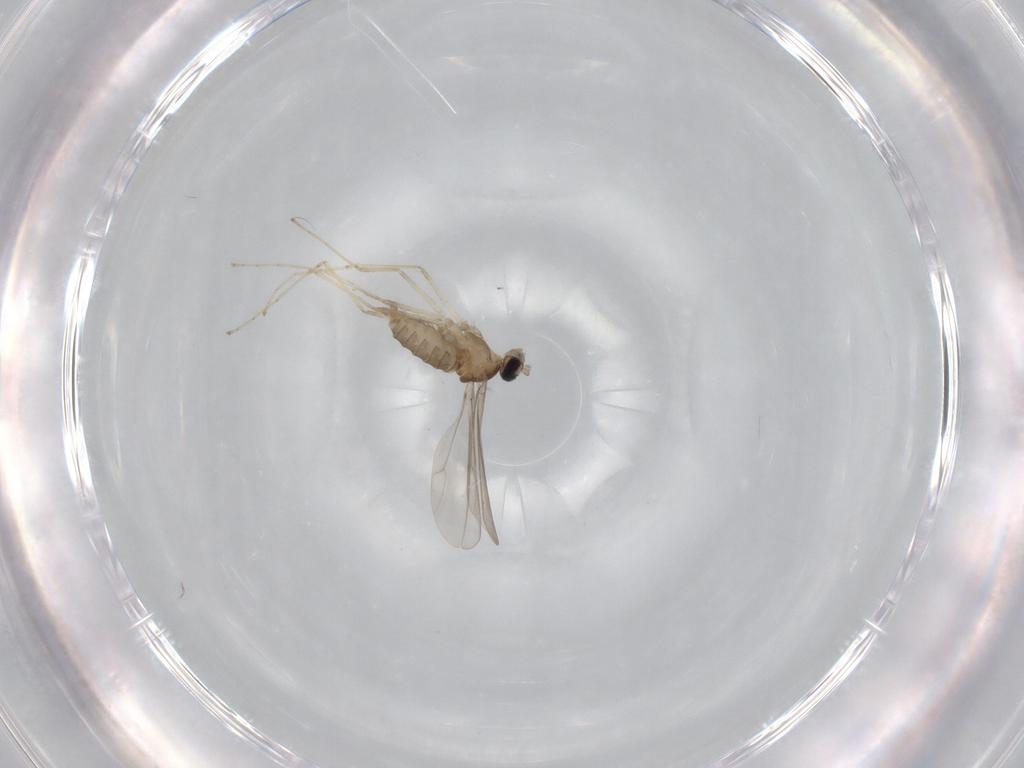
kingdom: Animalia
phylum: Arthropoda
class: Insecta
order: Diptera
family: Cecidomyiidae
